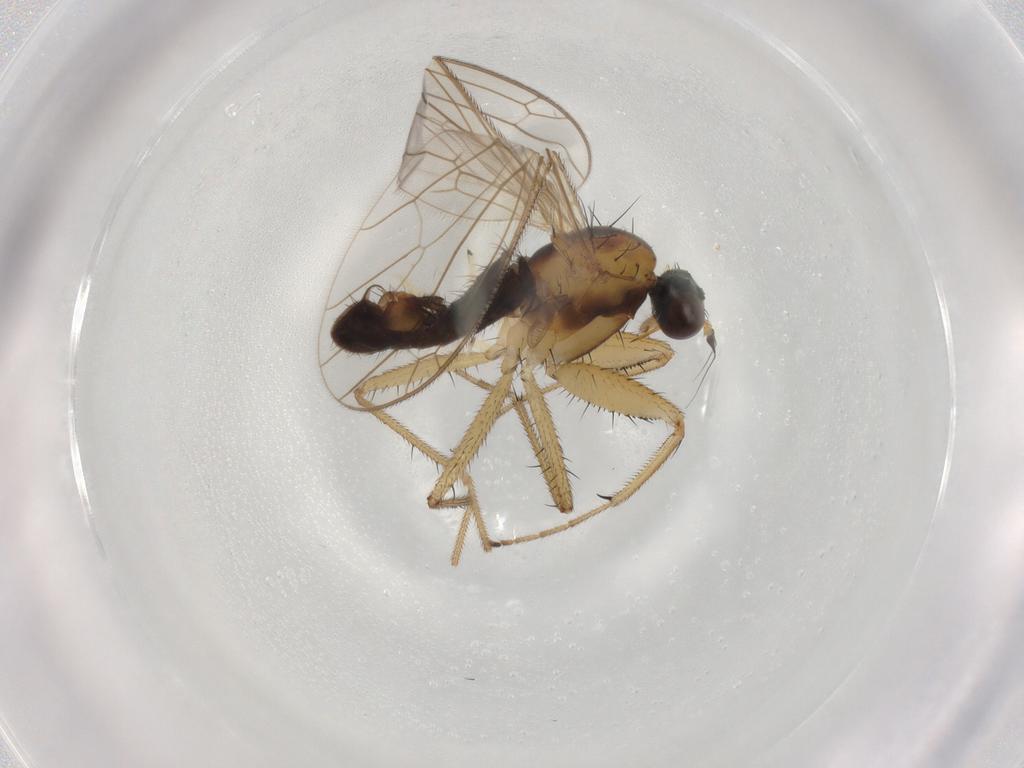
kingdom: Animalia
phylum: Arthropoda
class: Insecta
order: Diptera
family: Empididae
